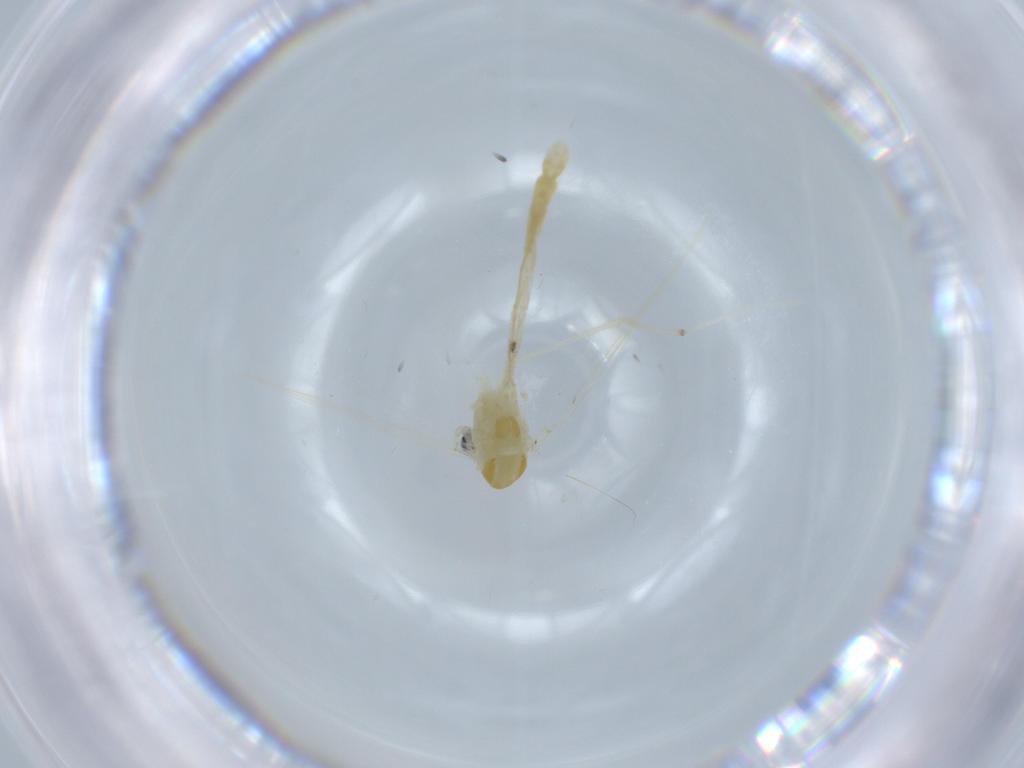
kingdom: Animalia
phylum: Arthropoda
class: Insecta
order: Diptera
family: Chironomidae
